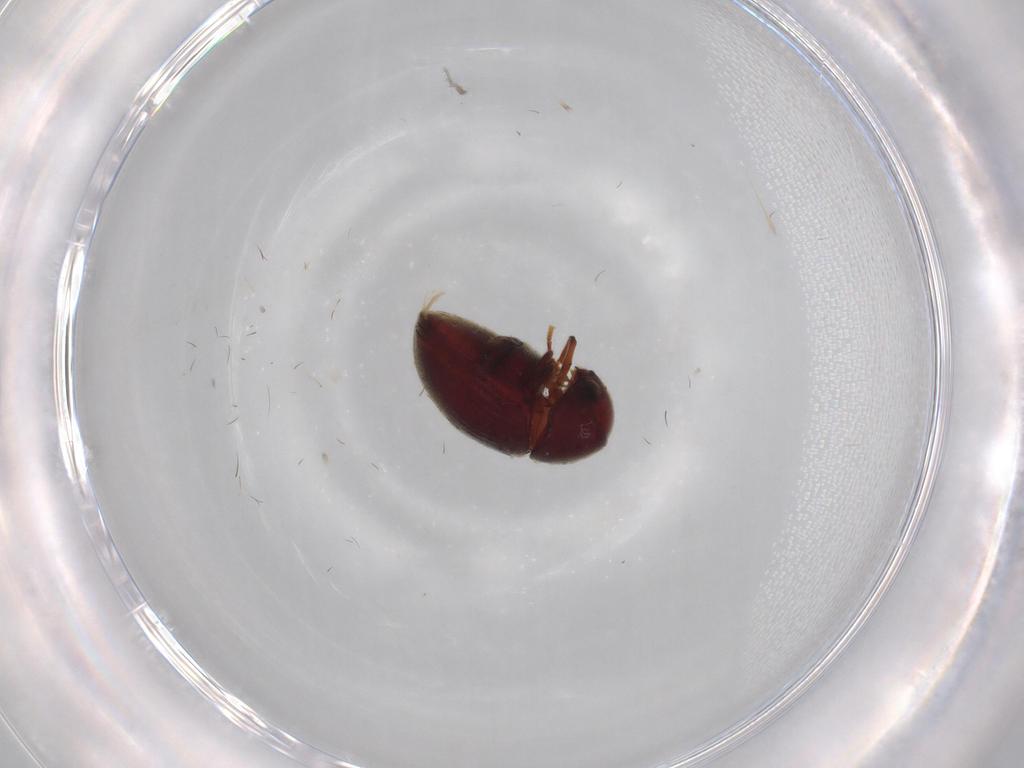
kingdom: Animalia
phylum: Arthropoda
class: Insecta
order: Coleoptera
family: Ptinidae
